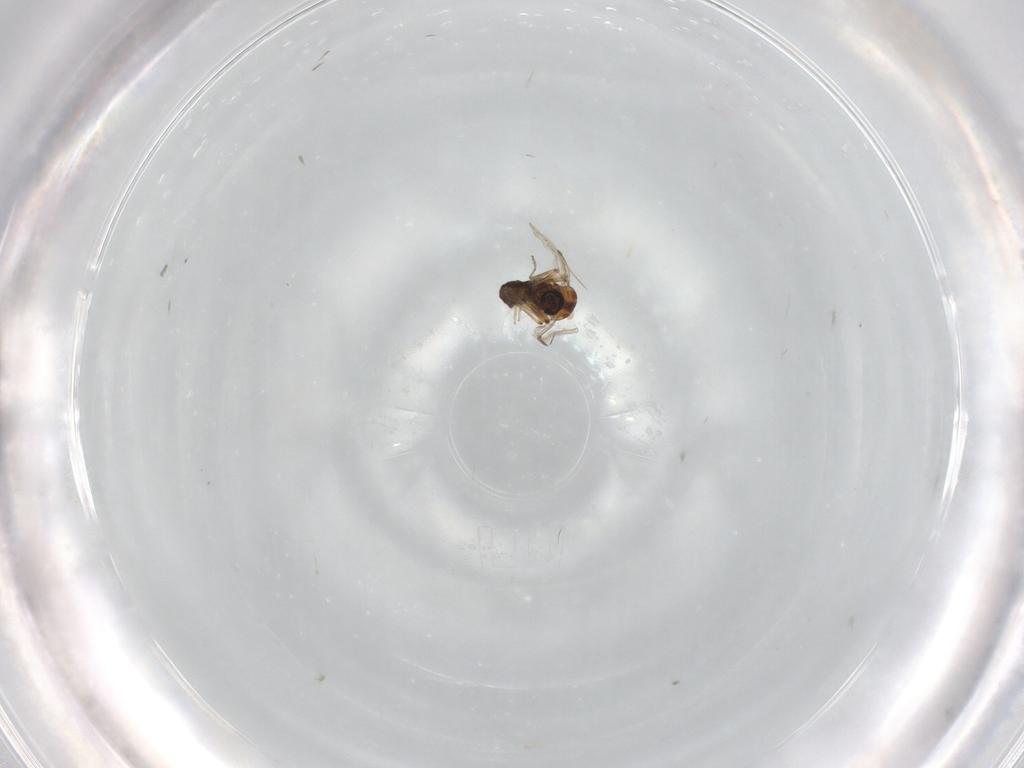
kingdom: Animalia
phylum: Arthropoda
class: Insecta
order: Diptera
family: Ceratopogonidae
